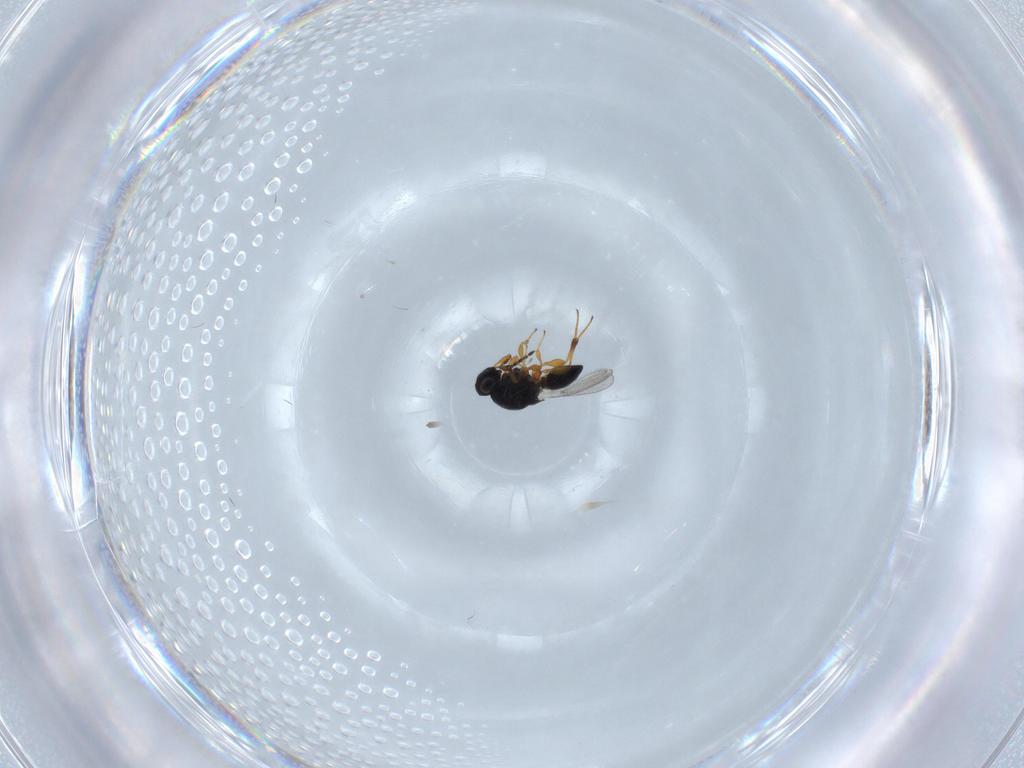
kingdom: Animalia
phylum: Arthropoda
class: Insecta
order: Hymenoptera
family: Platygastridae
